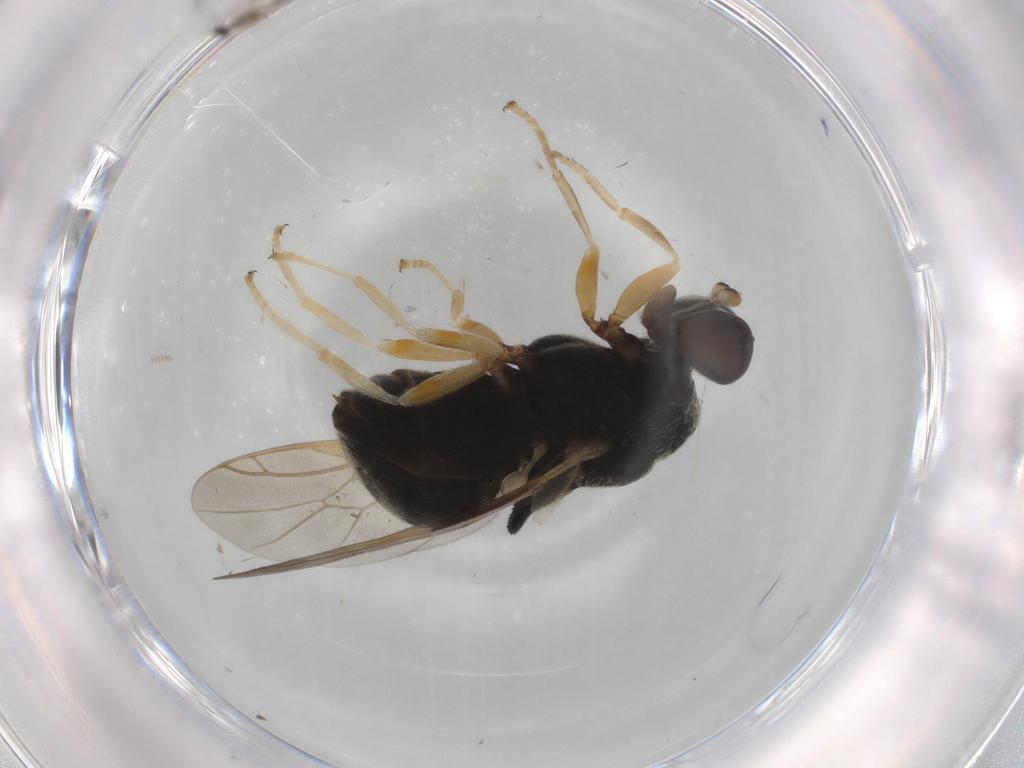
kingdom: Animalia
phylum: Arthropoda
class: Insecta
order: Diptera
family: Stratiomyidae
